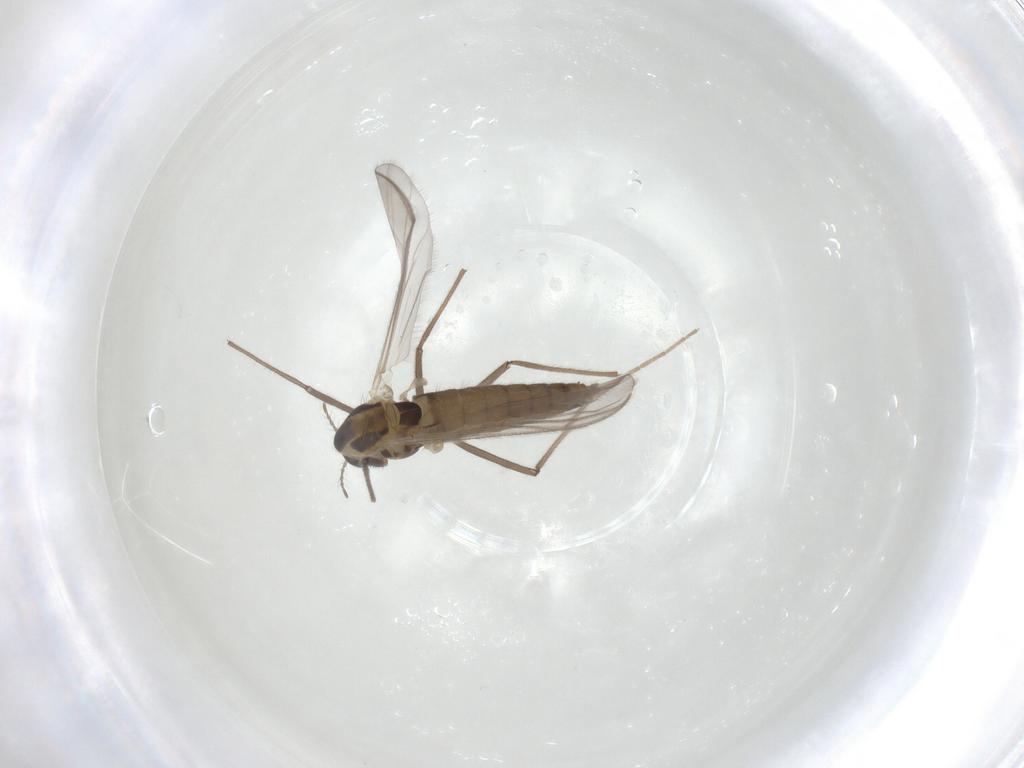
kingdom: Animalia
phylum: Arthropoda
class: Insecta
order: Diptera
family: Chironomidae
